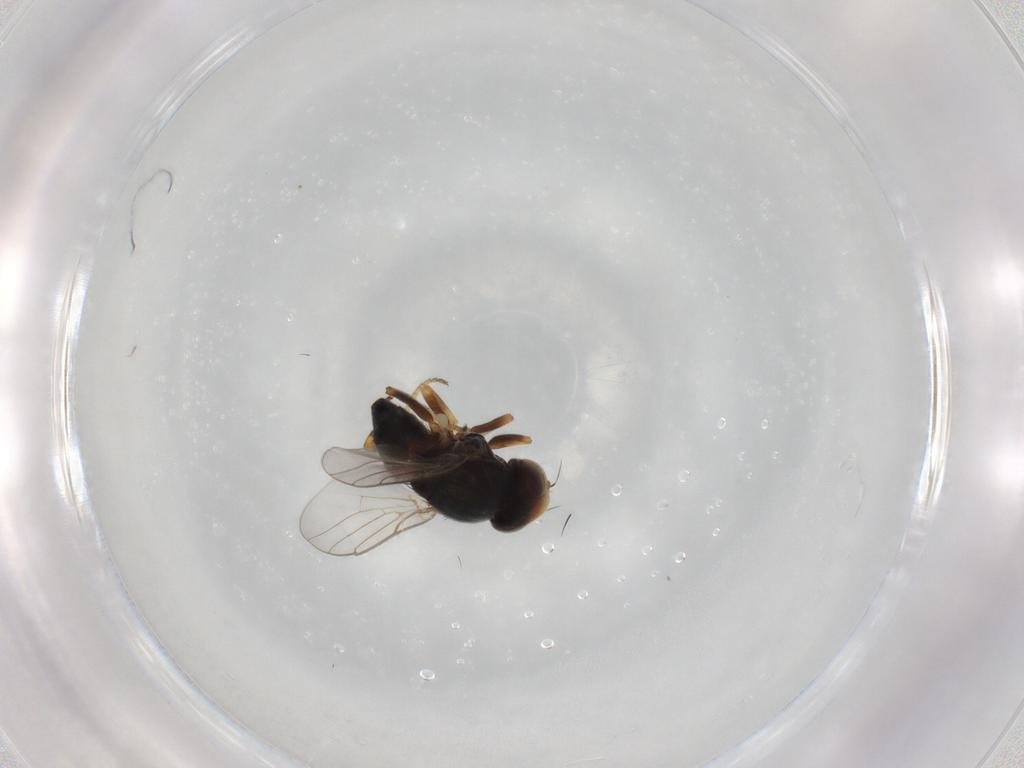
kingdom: Animalia
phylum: Arthropoda
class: Insecta
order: Diptera
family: Chloropidae
